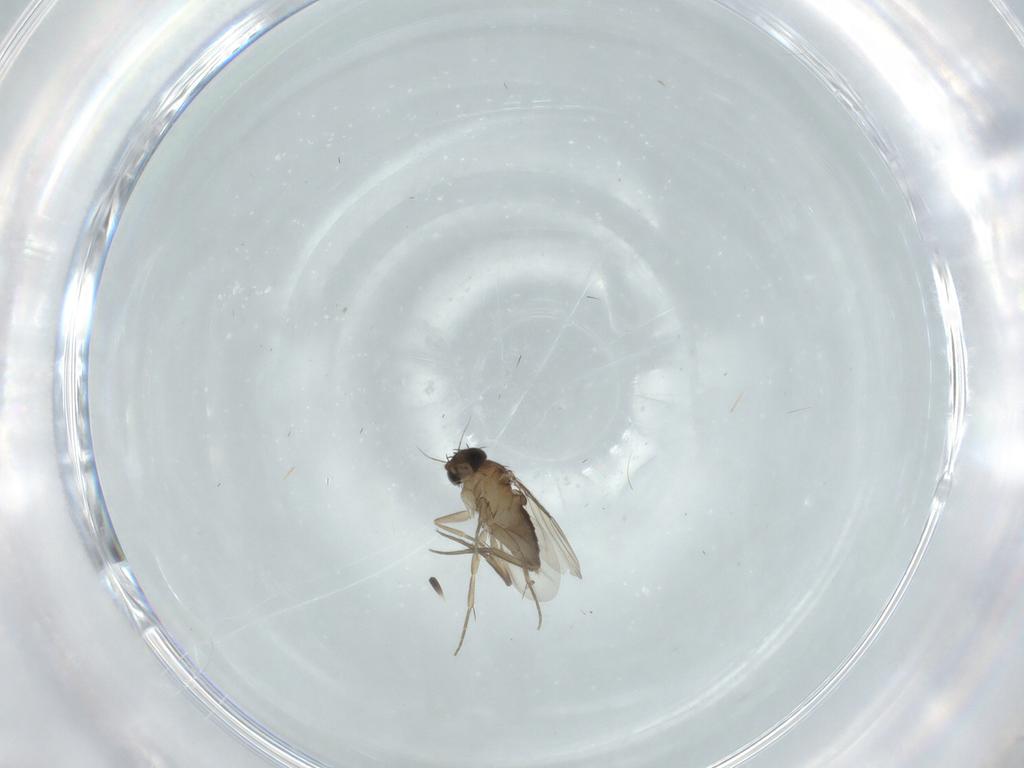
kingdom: Animalia
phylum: Arthropoda
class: Insecta
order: Diptera
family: Phoridae
